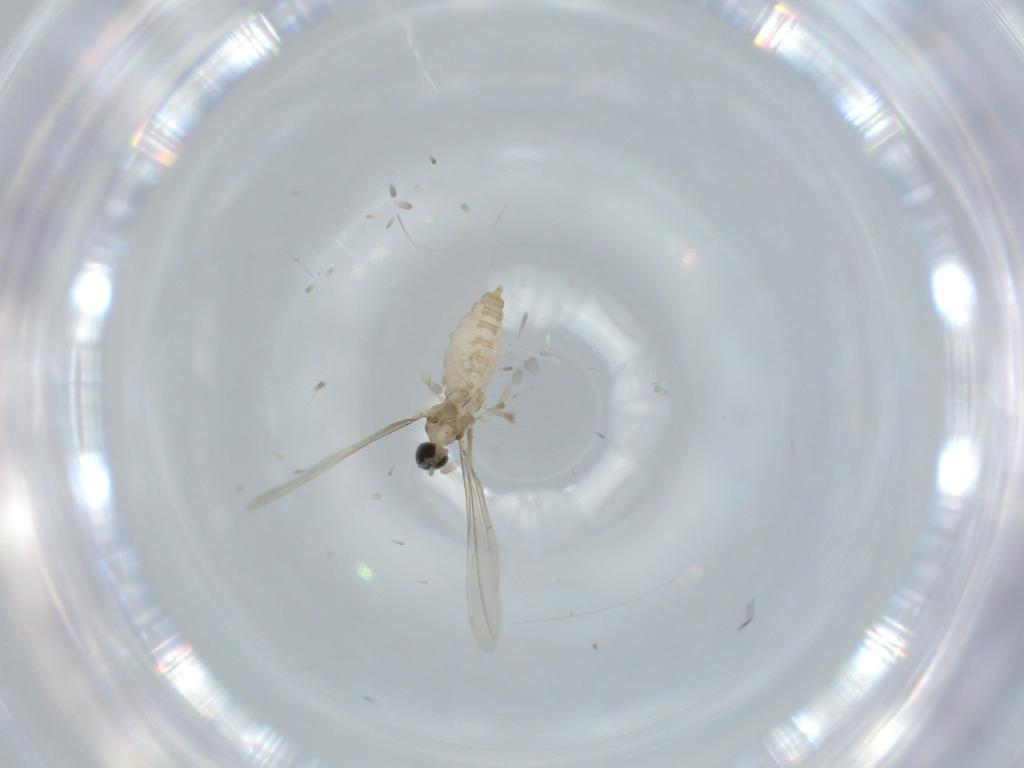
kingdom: Animalia
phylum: Arthropoda
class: Insecta
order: Diptera
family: Cecidomyiidae
